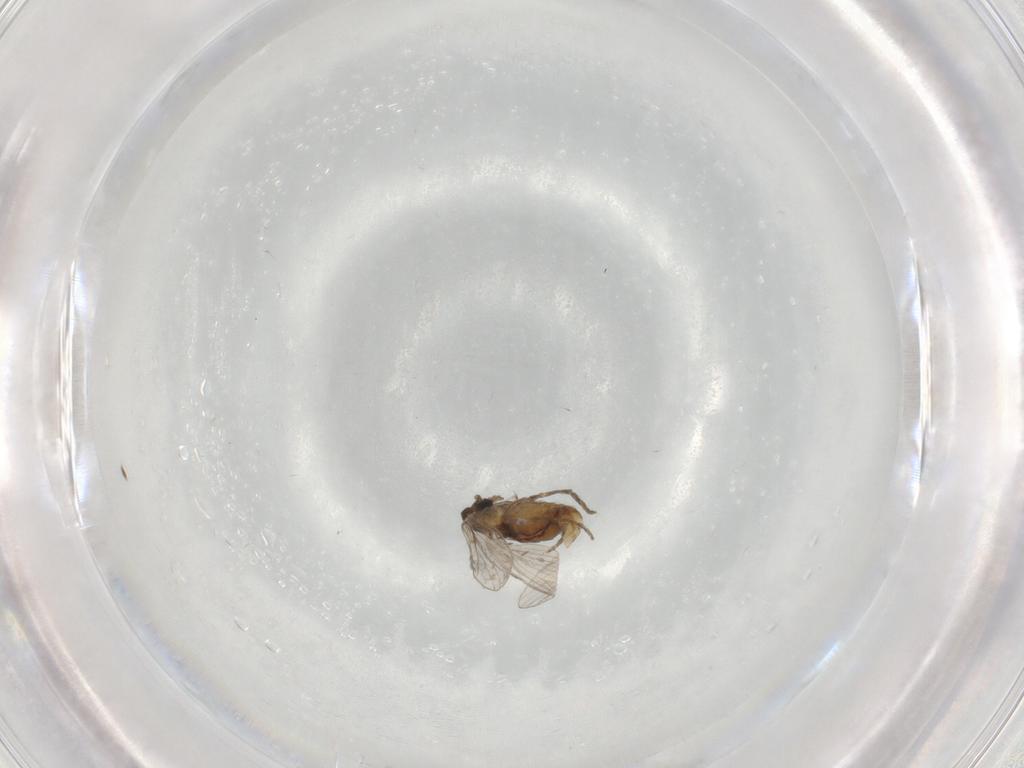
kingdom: Animalia
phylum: Arthropoda
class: Insecta
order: Diptera
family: Psychodidae
